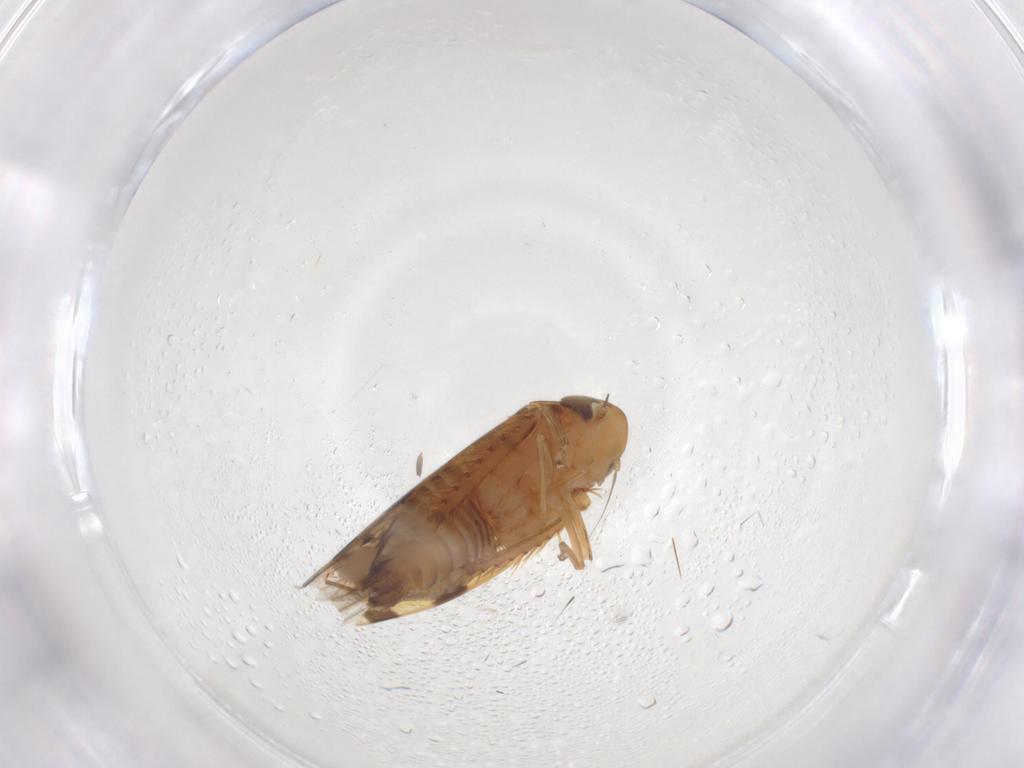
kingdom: Animalia
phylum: Arthropoda
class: Insecta
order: Hemiptera
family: Cicadellidae
